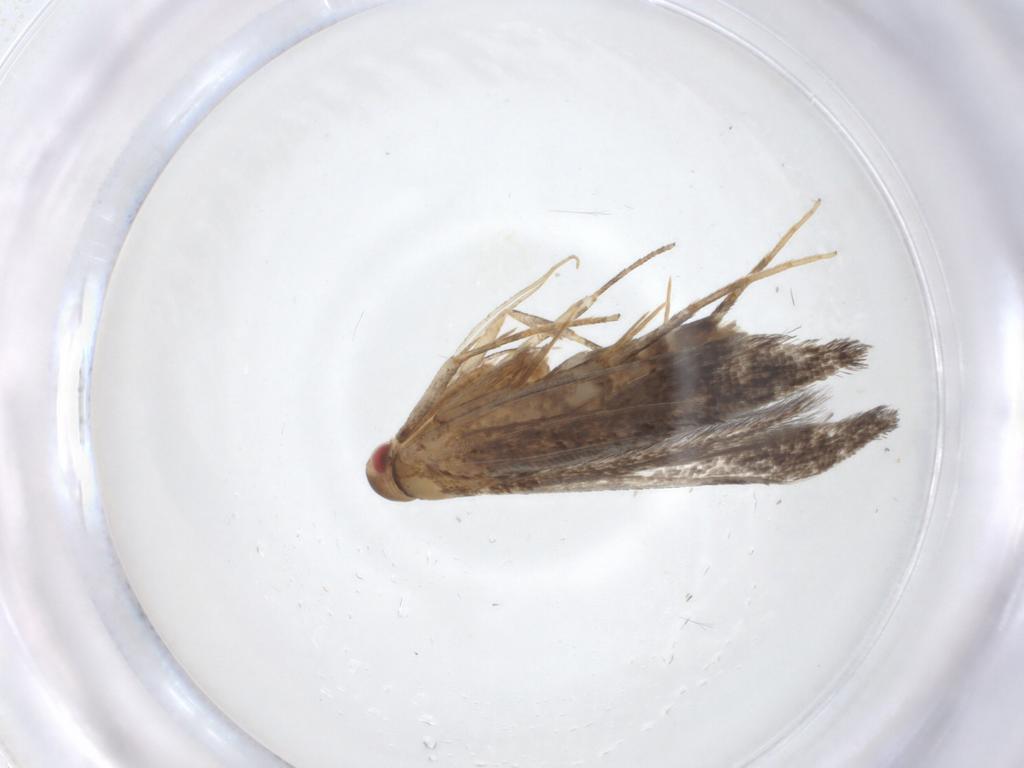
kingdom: Animalia
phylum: Arthropoda
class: Insecta
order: Lepidoptera
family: Cosmopterigidae
